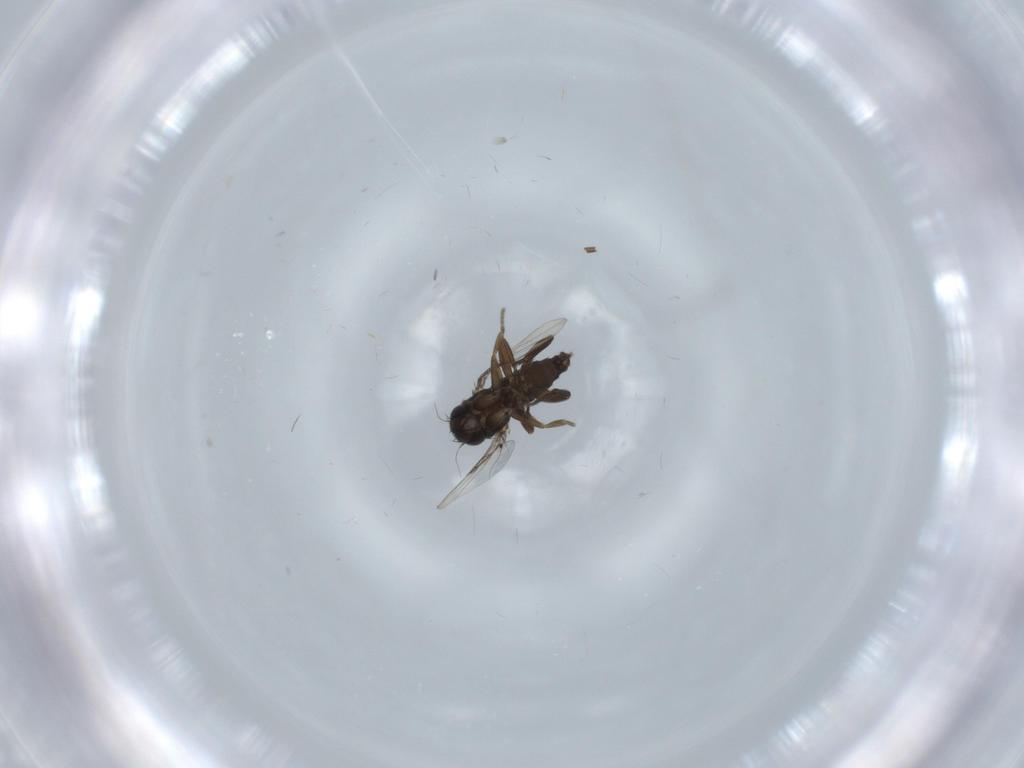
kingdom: Animalia
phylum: Arthropoda
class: Insecta
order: Diptera
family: Phoridae
